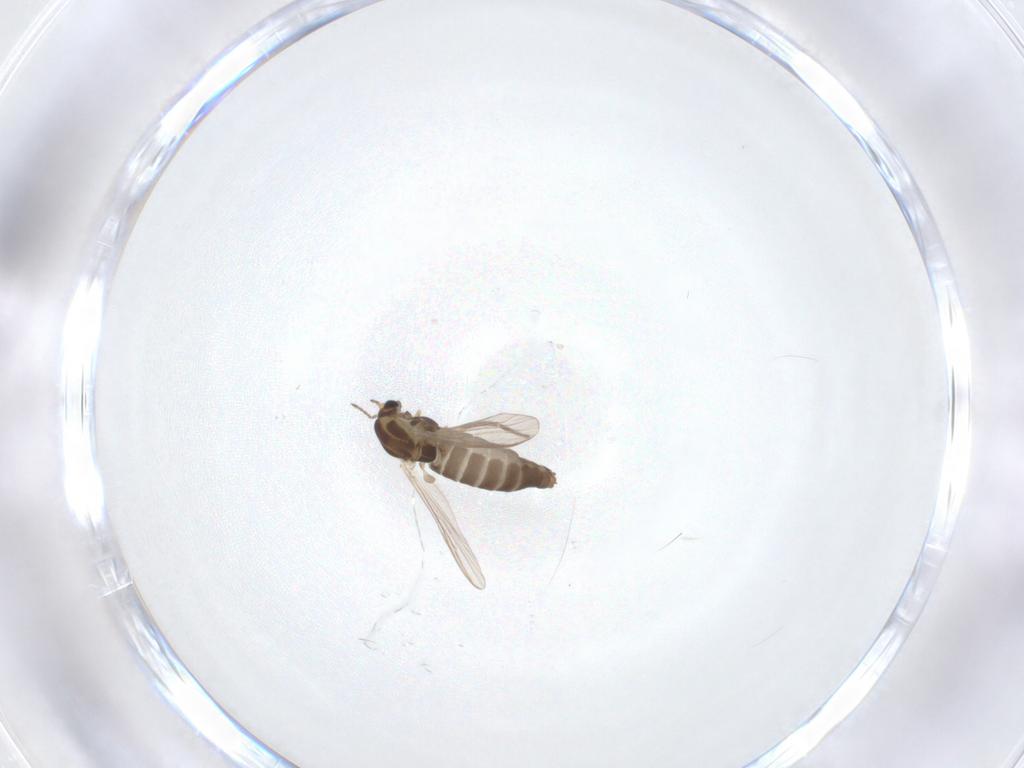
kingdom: Animalia
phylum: Arthropoda
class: Insecta
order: Diptera
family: Chironomidae
